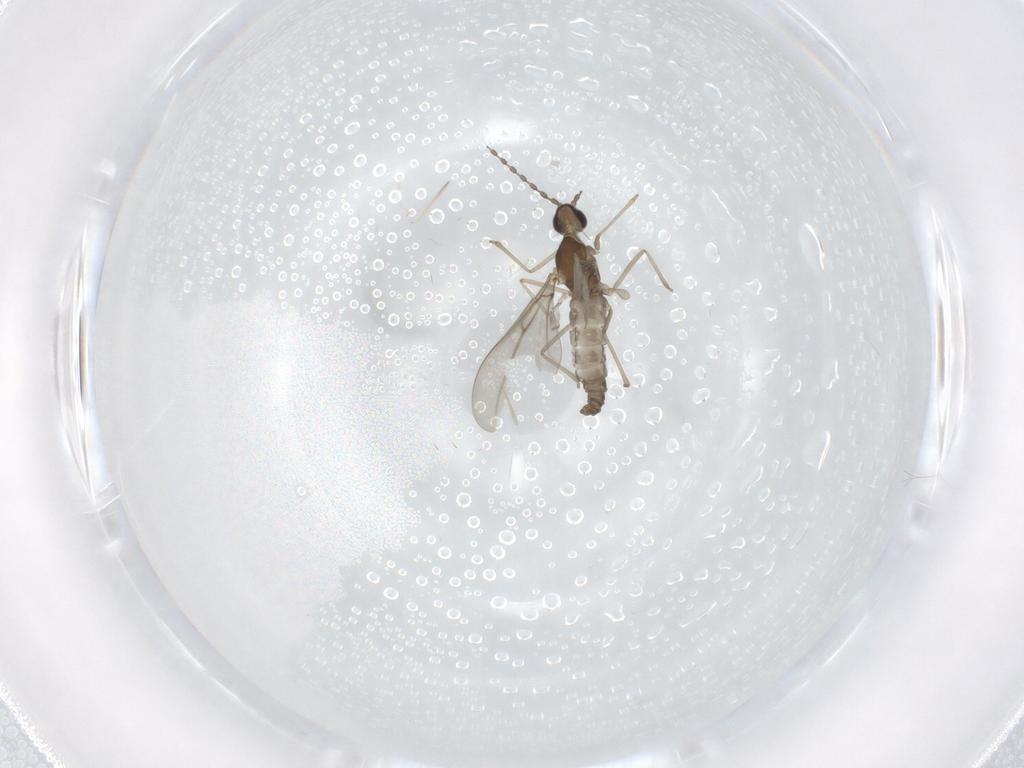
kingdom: Animalia
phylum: Arthropoda
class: Insecta
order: Diptera
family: Cecidomyiidae
